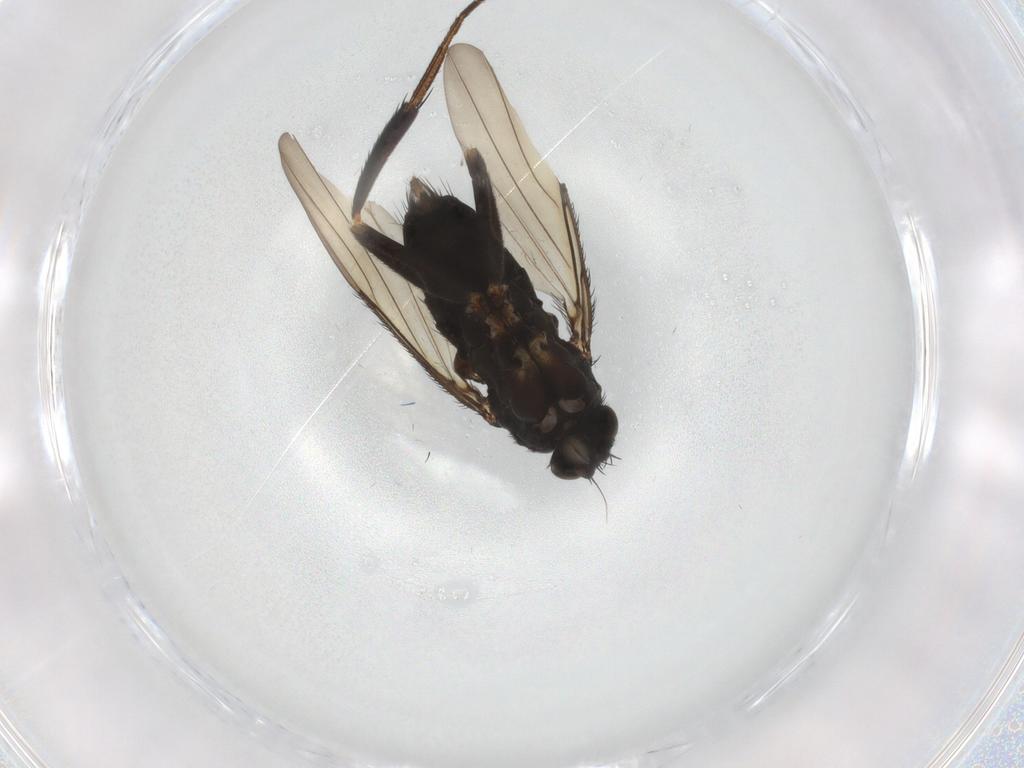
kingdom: Animalia
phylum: Arthropoda
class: Insecta
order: Diptera
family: Phoridae
